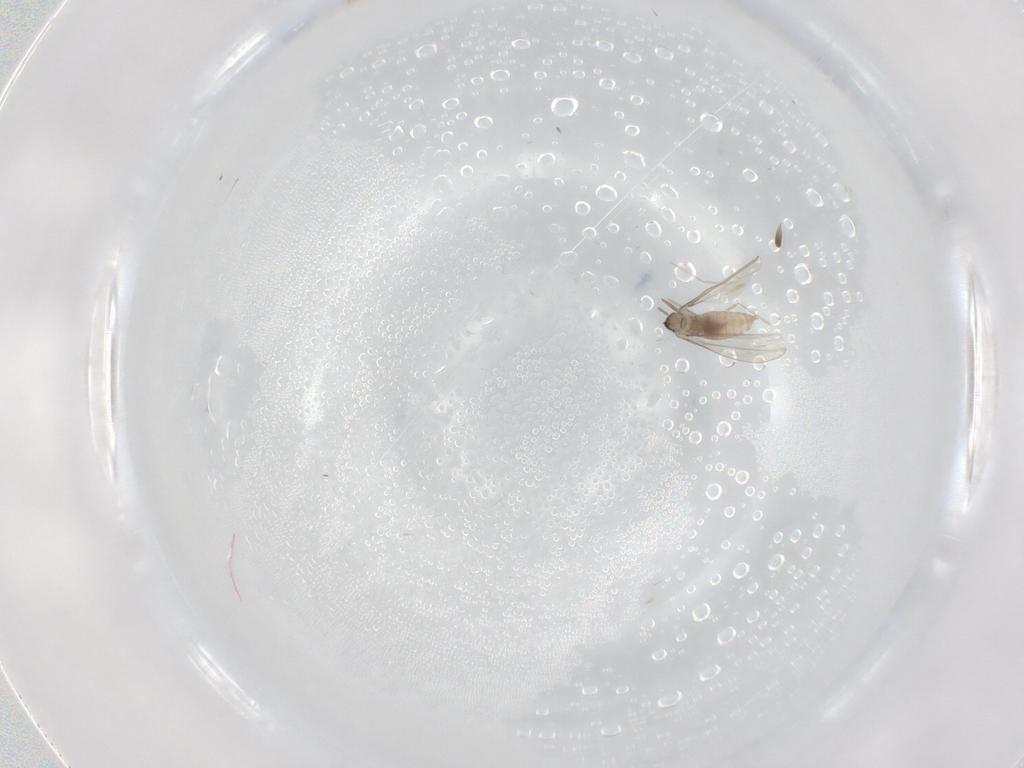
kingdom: Animalia
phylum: Arthropoda
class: Insecta
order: Diptera
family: Cecidomyiidae
